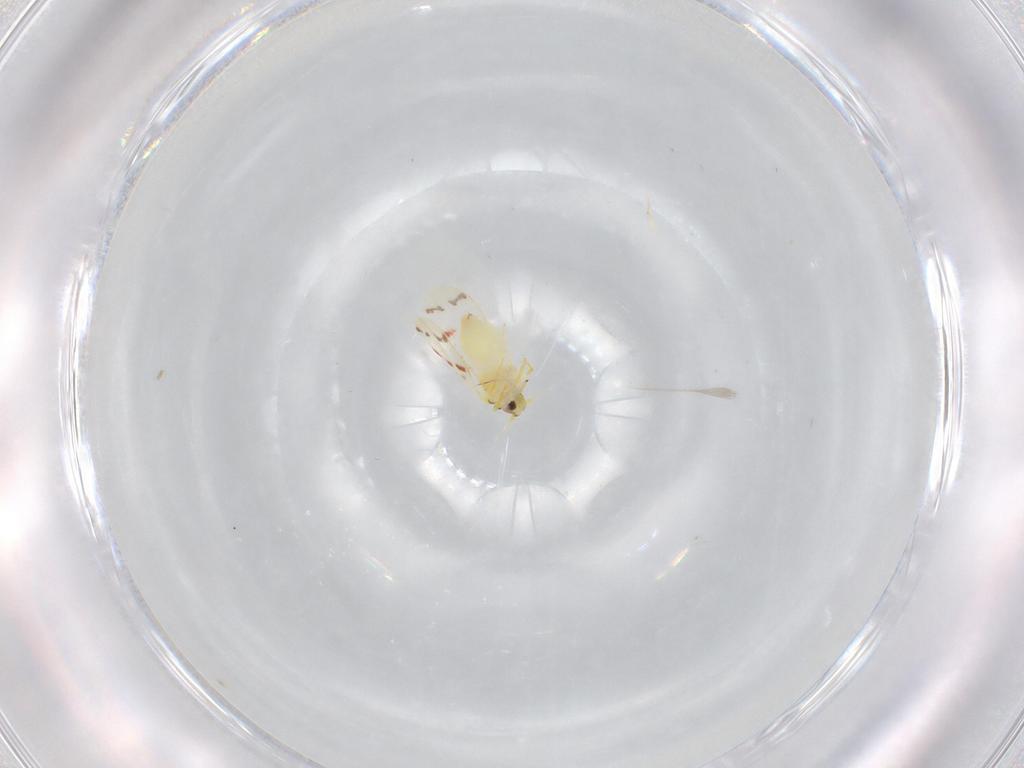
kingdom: Animalia
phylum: Arthropoda
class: Insecta
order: Hemiptera
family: Aleyrodidae
